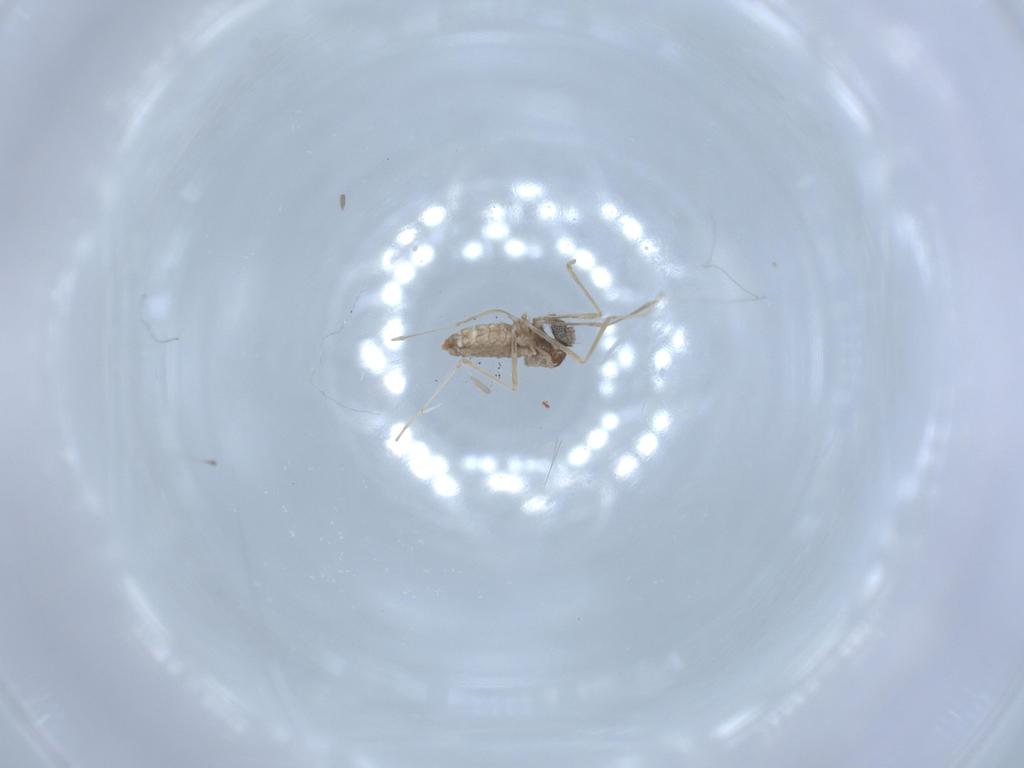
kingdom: Animalia
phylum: Arthropoda
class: Insecta
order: Diptera
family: Cecidomyiidae
